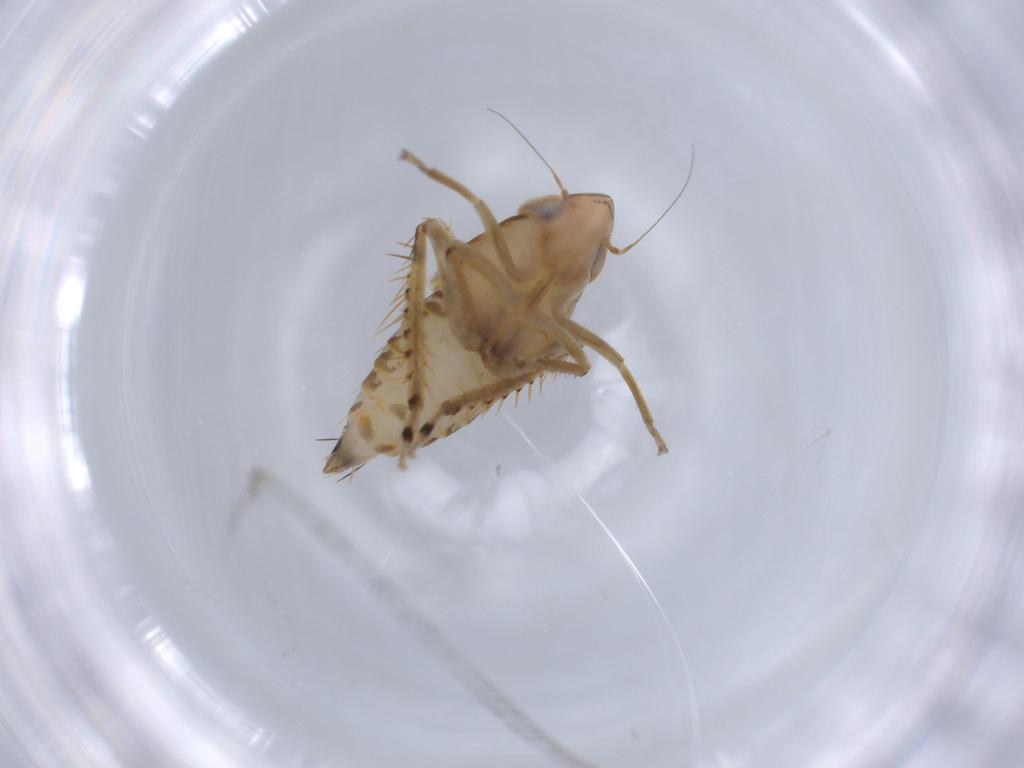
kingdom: Animalia
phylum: Arthropoda
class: Insecta
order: Hemiptera
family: Cicadellidae
